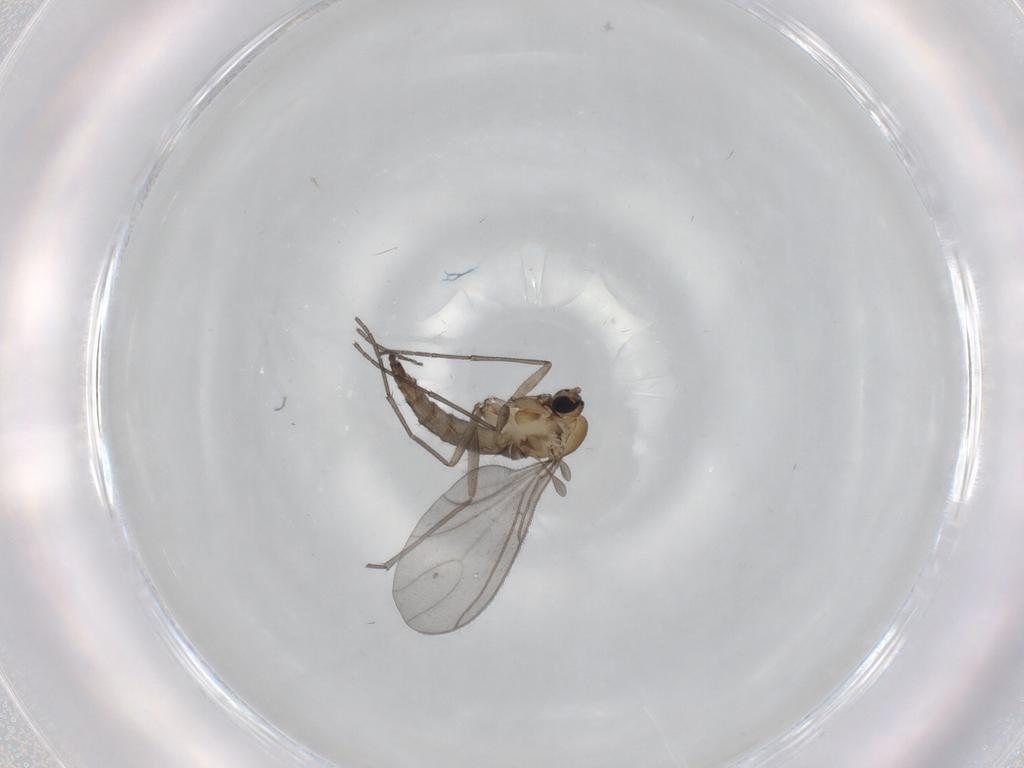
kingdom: Animalia
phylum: Arthropoda
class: Insecta
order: Diptera
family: Sciaridae
